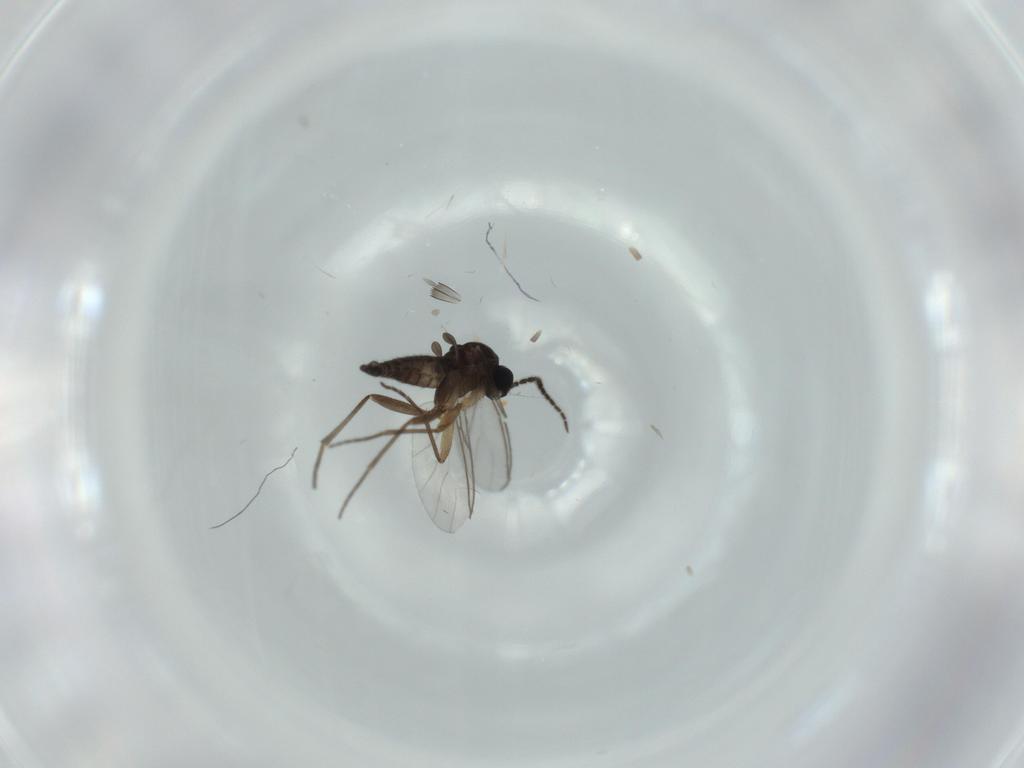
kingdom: Animalia
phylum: Arthropoda
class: Insecta
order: Diptera
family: Sciaridae
